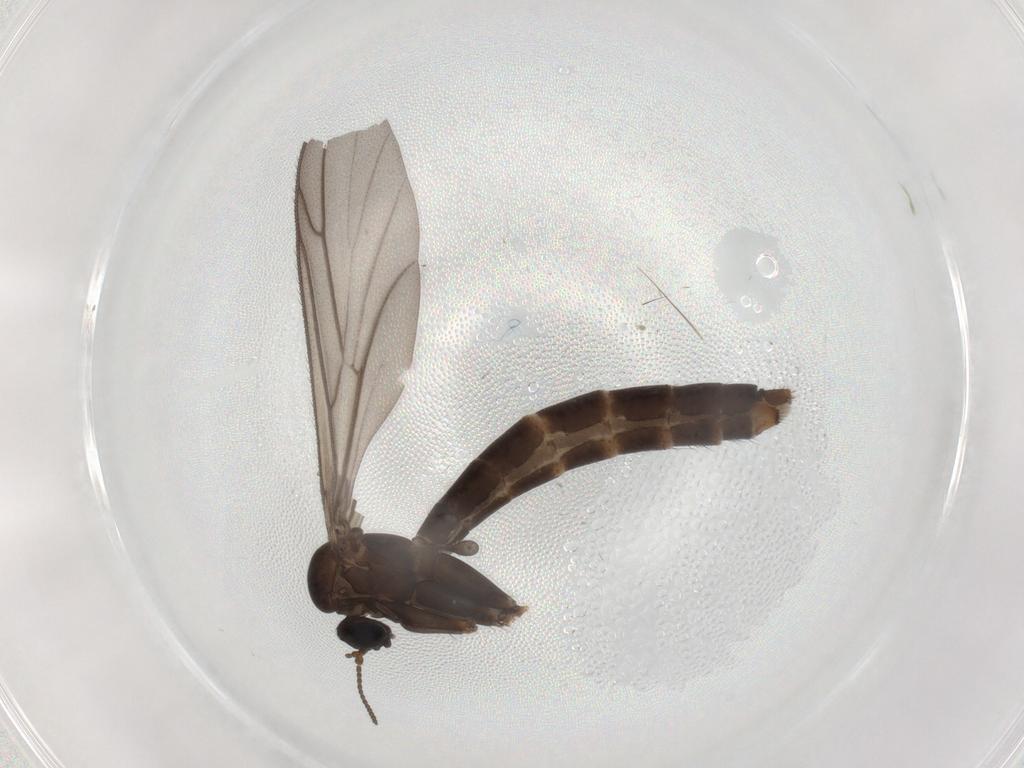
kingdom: Animalia
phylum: Arthropoda
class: Insecta
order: Diptera
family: Keroplatidae
